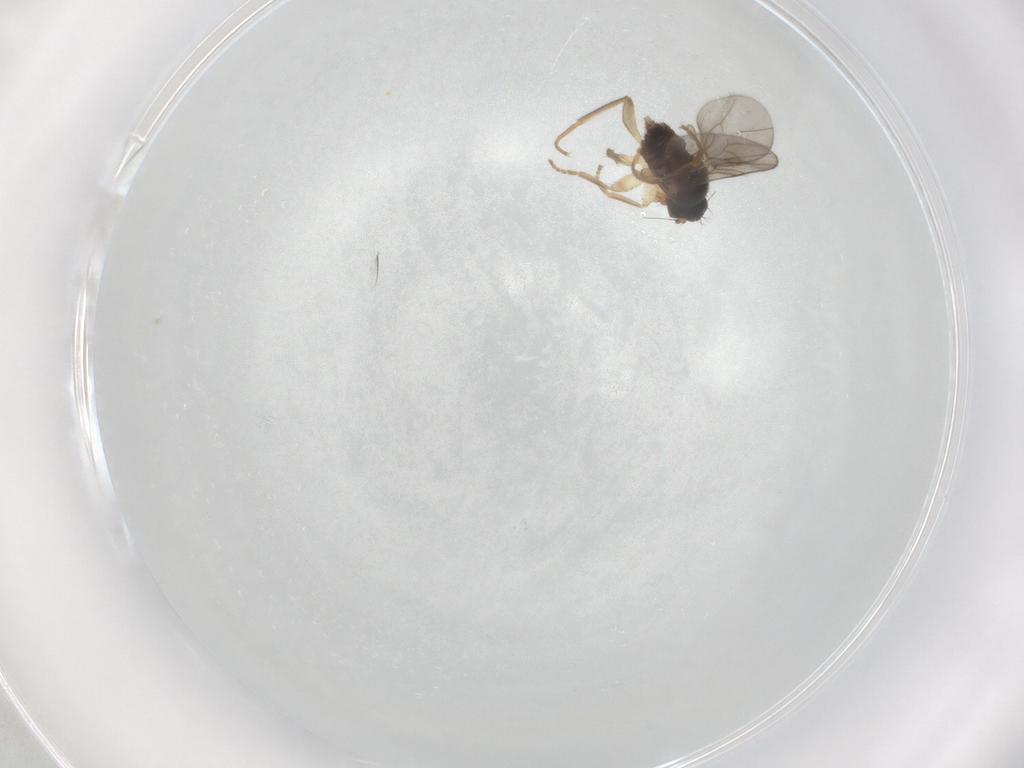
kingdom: Animalia
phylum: Arthropoda
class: Insecta
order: Diptera
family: Hybotidae
